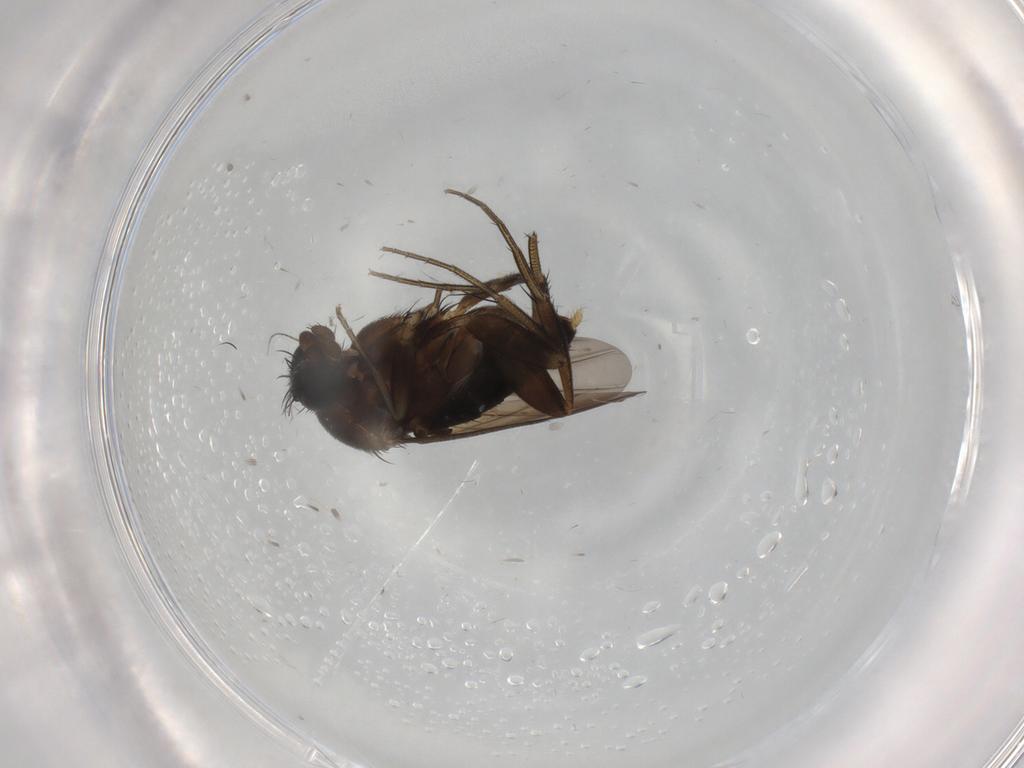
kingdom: Animalia
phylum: Arthropoda
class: Insecta
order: Diptera
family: Phoridae
